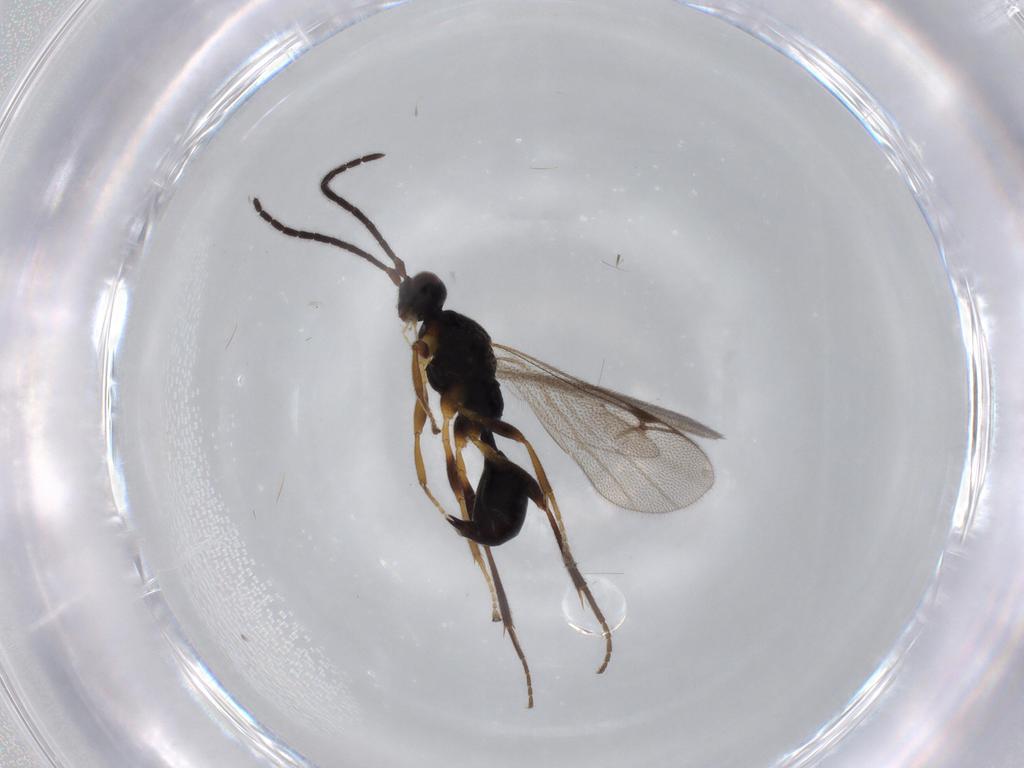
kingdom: Animalia
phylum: Arthropoda
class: Insecta
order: Hymenoptera
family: Proctotrupidae
